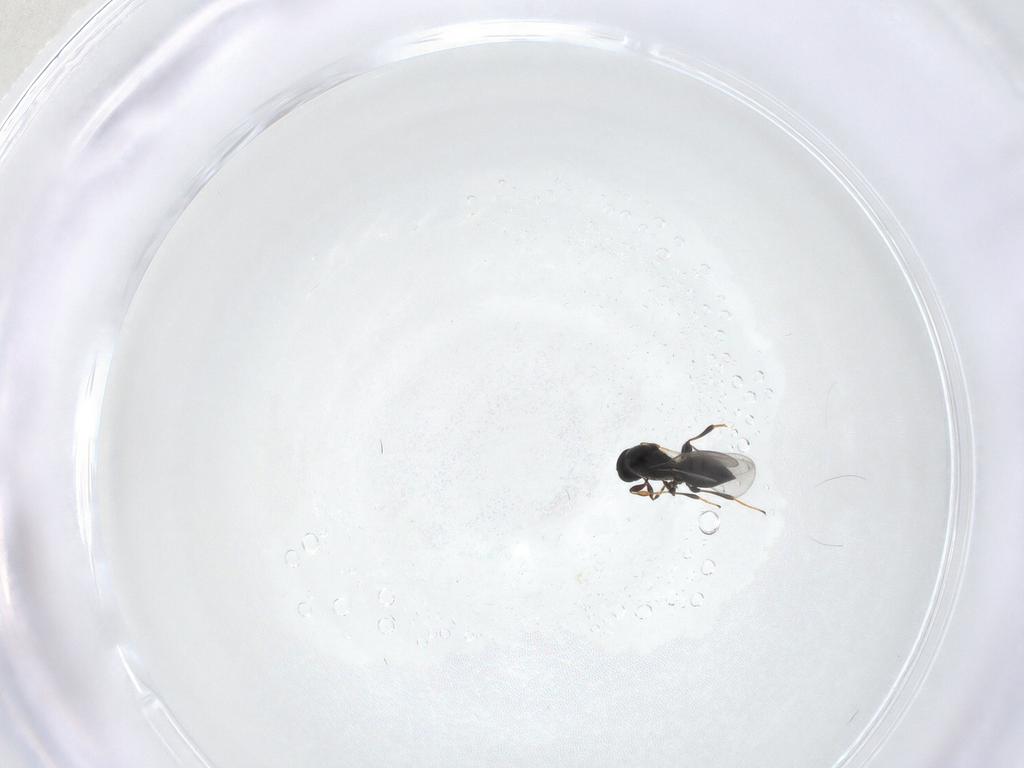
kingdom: Animalia
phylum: Arthropoda
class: Insecta
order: Hymenoptera
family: Platygastridae
